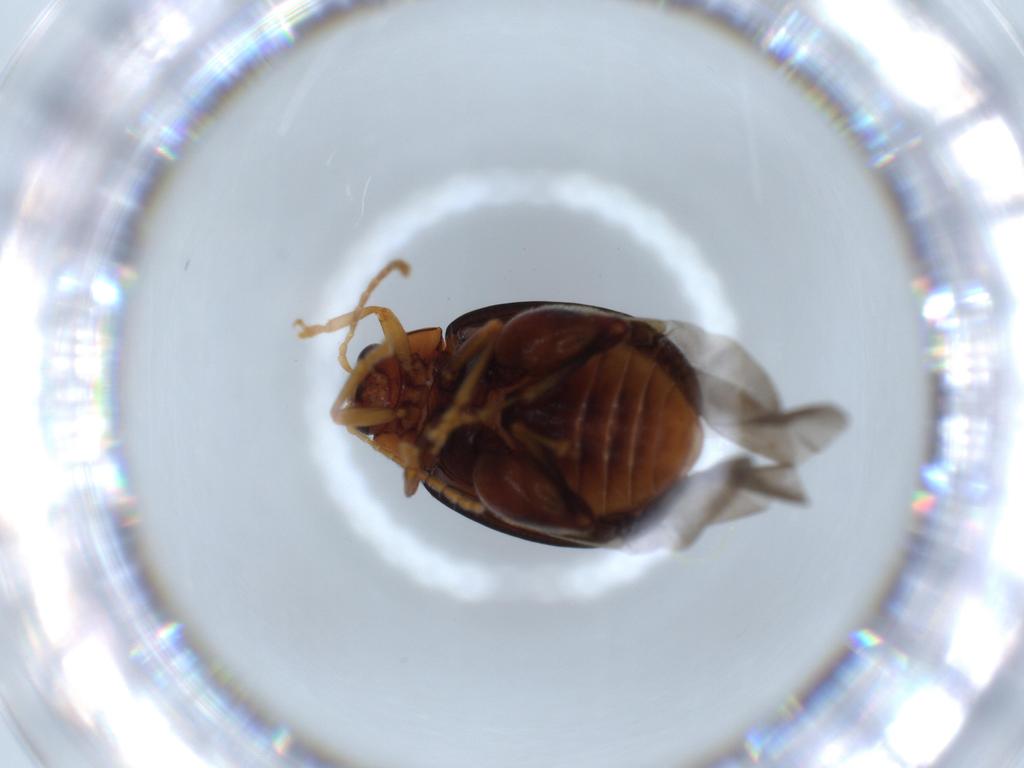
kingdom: Animalia
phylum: Arthropoda
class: Insecta
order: Coleoptera
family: Chrysomelidae
